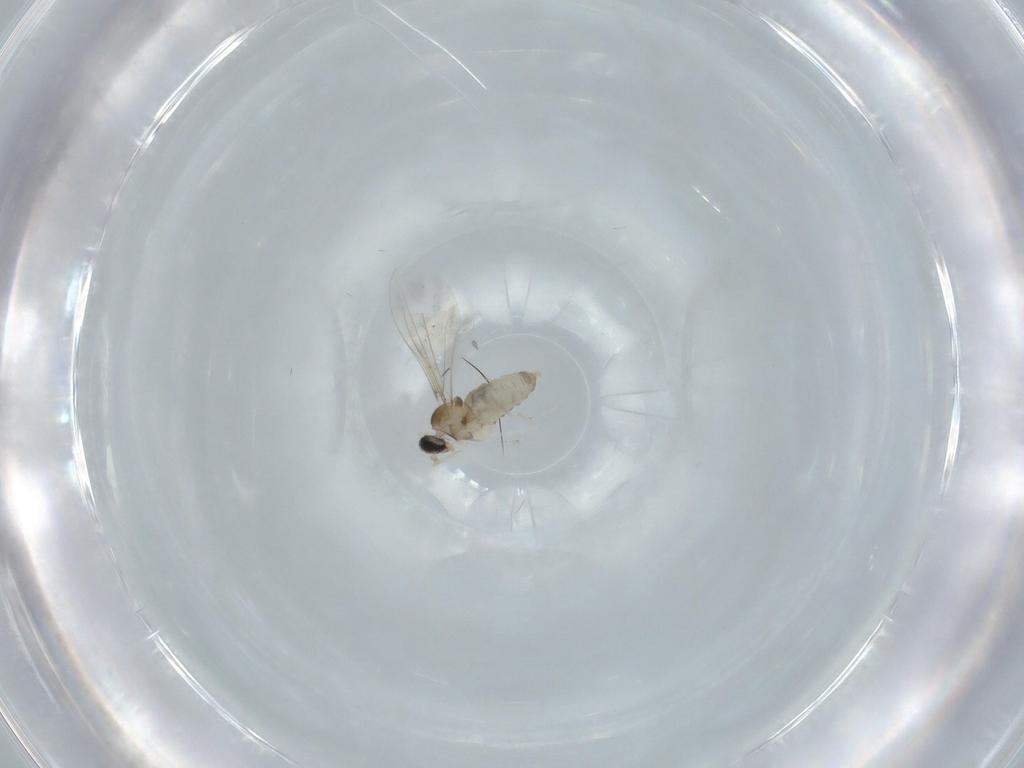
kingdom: Animalia
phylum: Arthropoda
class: Insecta
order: Diptera
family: Cecidomyiidae
